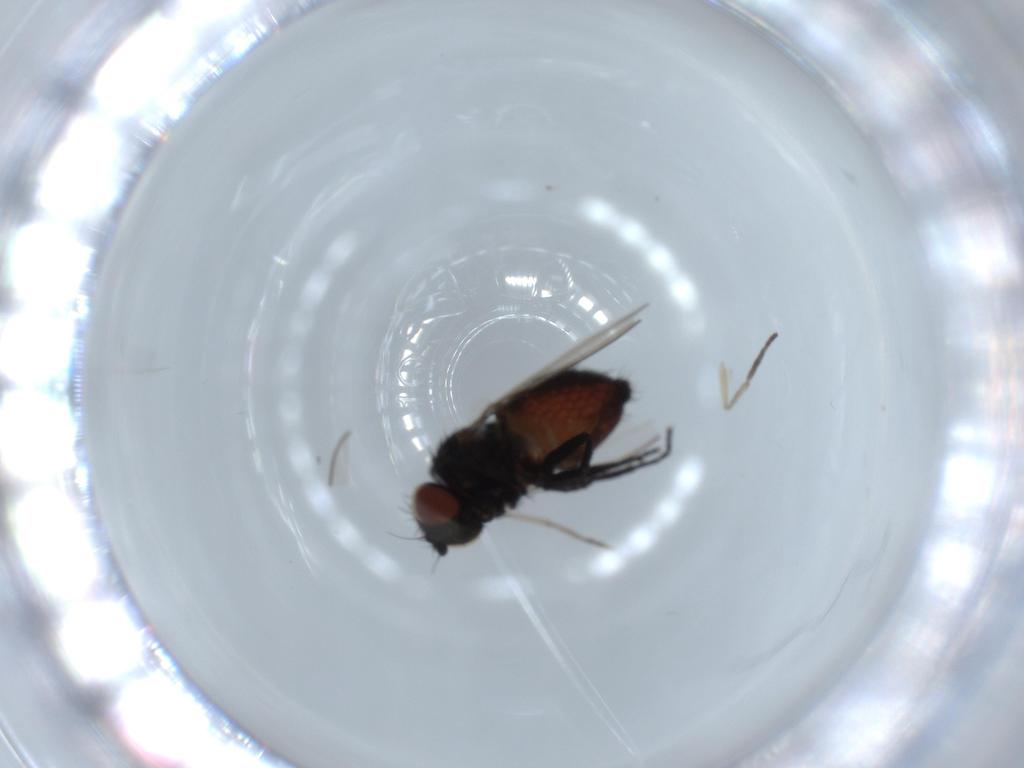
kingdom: Animalia
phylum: Arthropoda
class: Insecta
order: Diptera
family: Milichiidae
